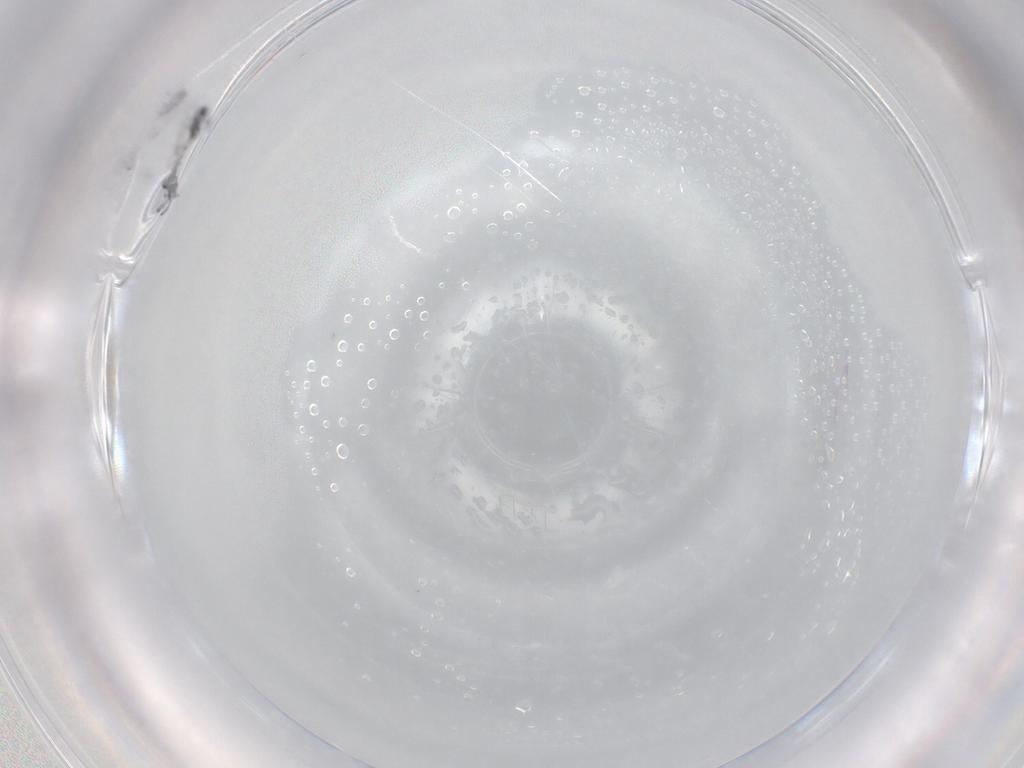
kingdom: Animalia
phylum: Arthropoda
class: Collembola
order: Entomobryomorpha
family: Entomobryidae
